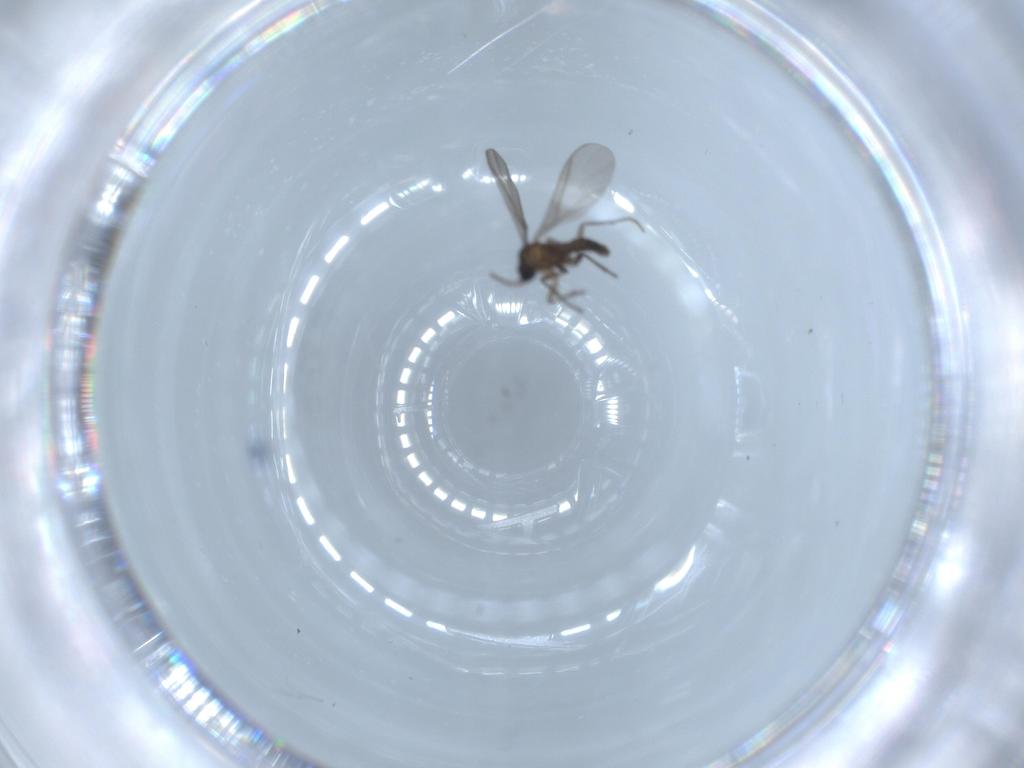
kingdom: Animalia
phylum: Arthropoda
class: Insecta
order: Diptera
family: Sciaridae
